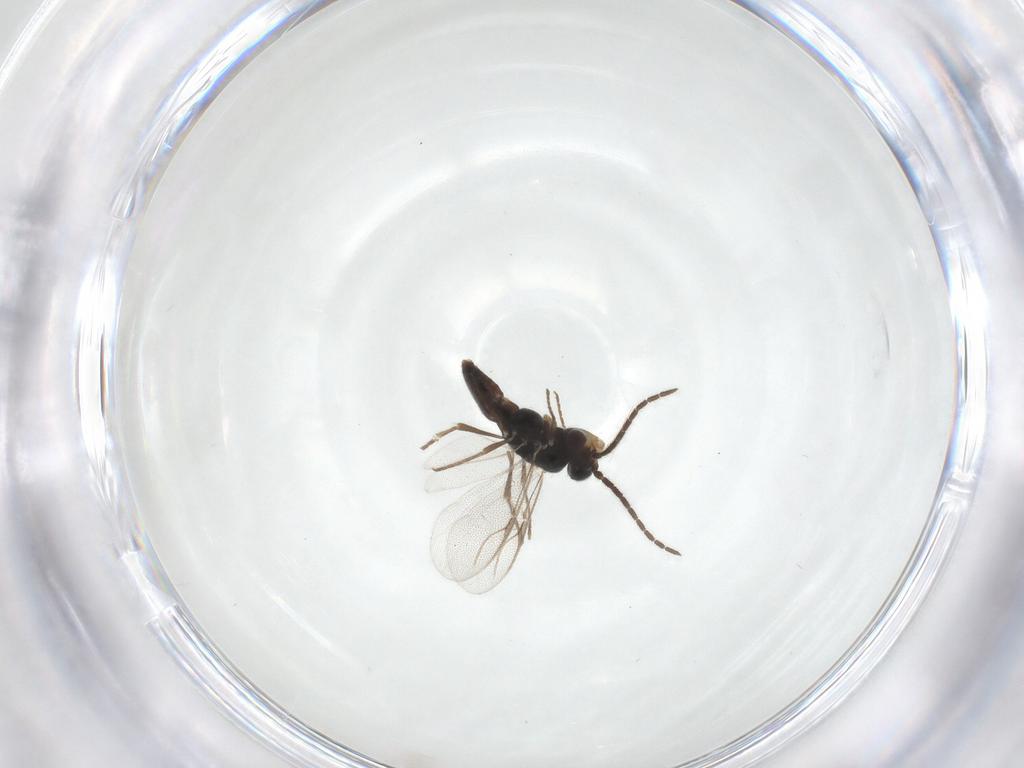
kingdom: Animalia
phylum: Arthropoda
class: Insecta
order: Hymenoptera
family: Dryinidae
